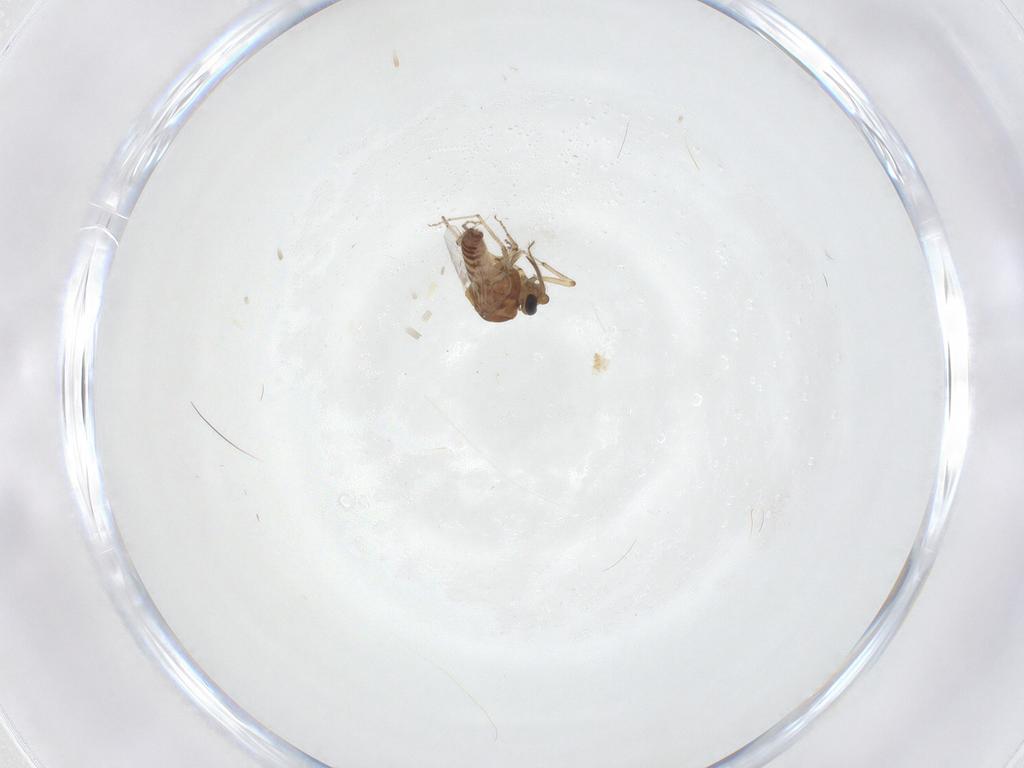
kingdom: Animalia
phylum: Arthropoda
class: Insecta
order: Diptera
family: Ceratopogonidae
